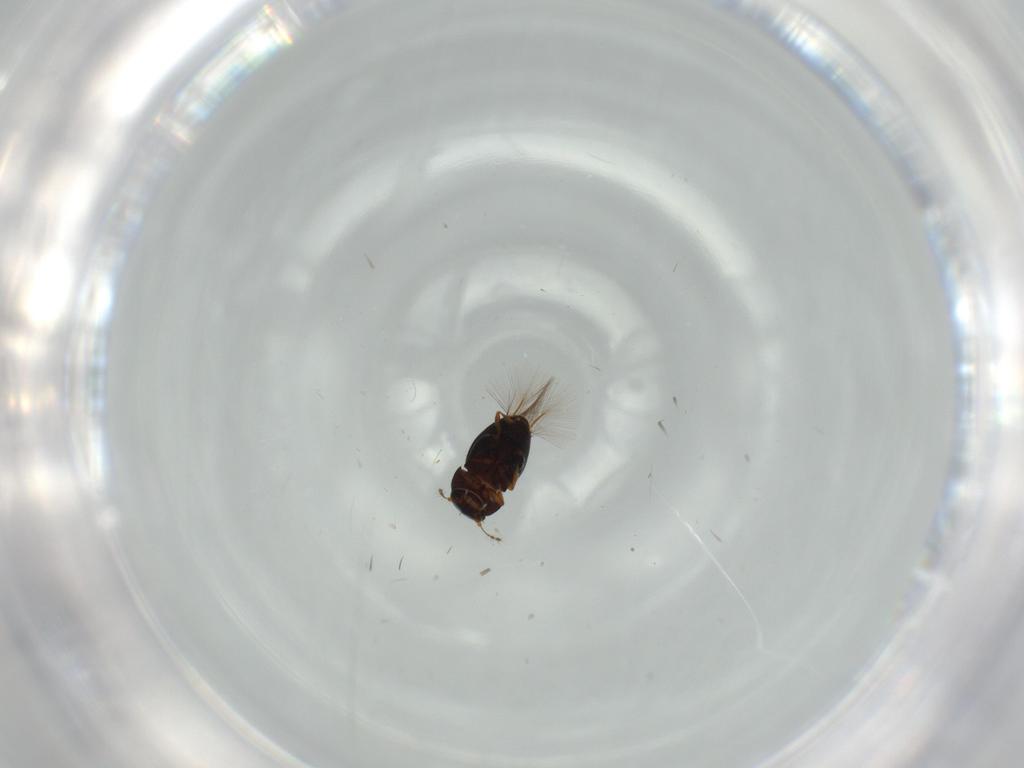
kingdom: Animalia
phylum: Arthropoda
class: Insecta
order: Coleoptera
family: Ptiliidae
